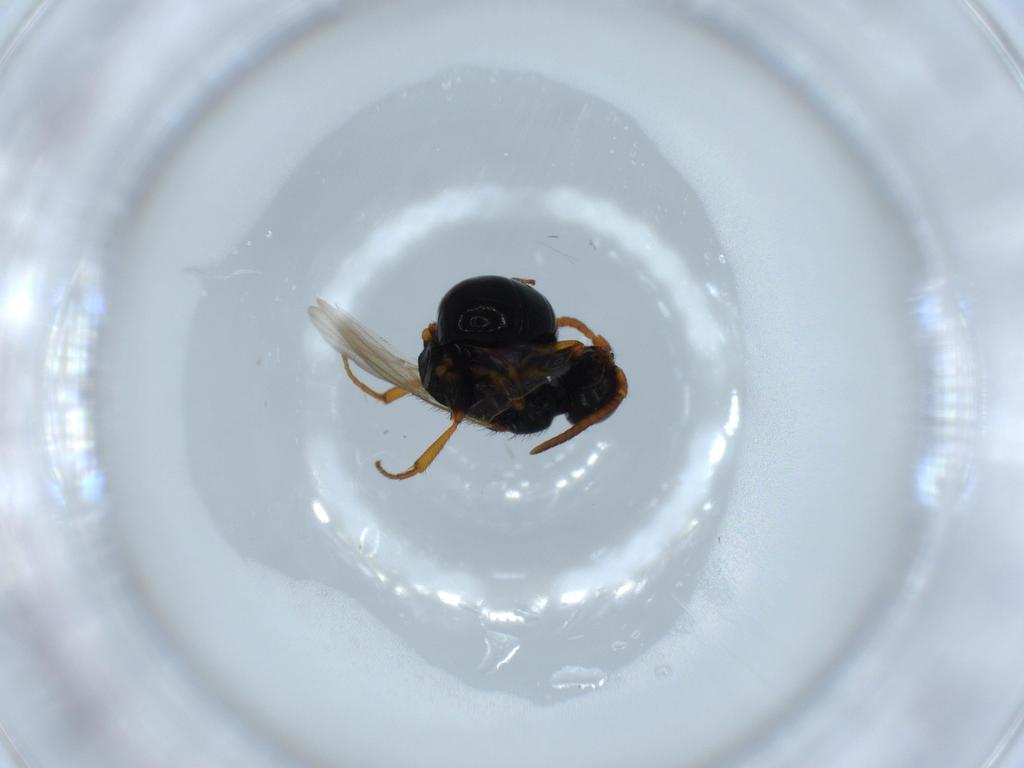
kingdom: Animalia
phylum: Arthropoda
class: Insecta
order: Hymenoptera
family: Bethylidae
